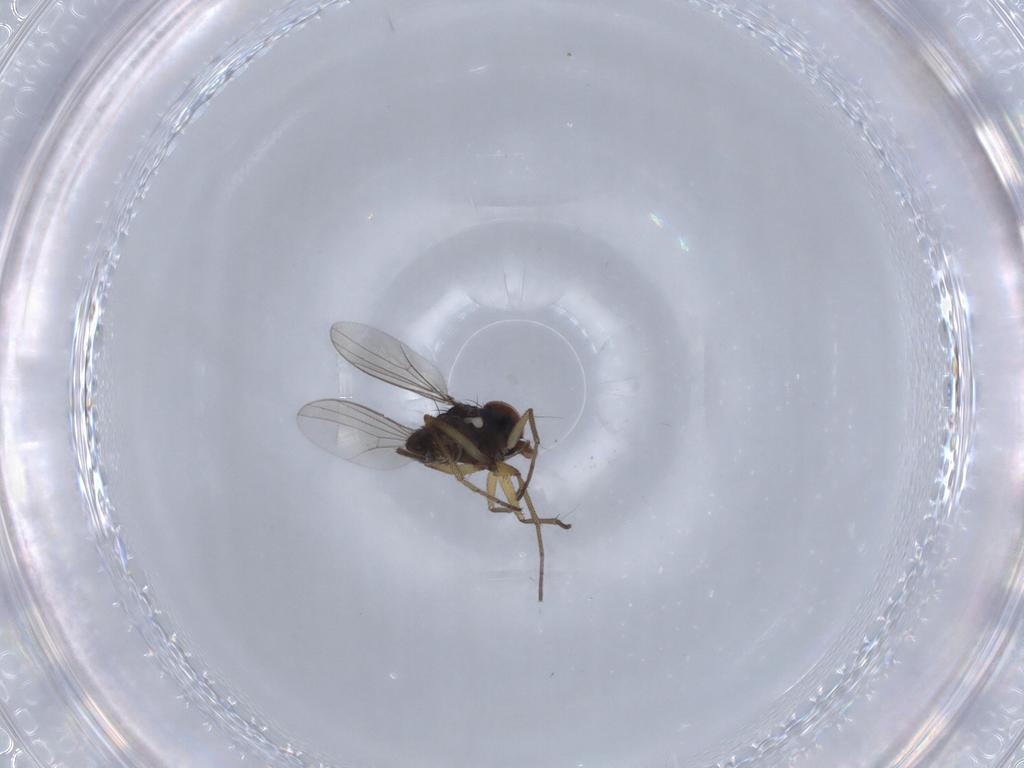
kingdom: Animalia
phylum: Arthropoda
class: Insecta
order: Diptera
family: Dolichopodidae
